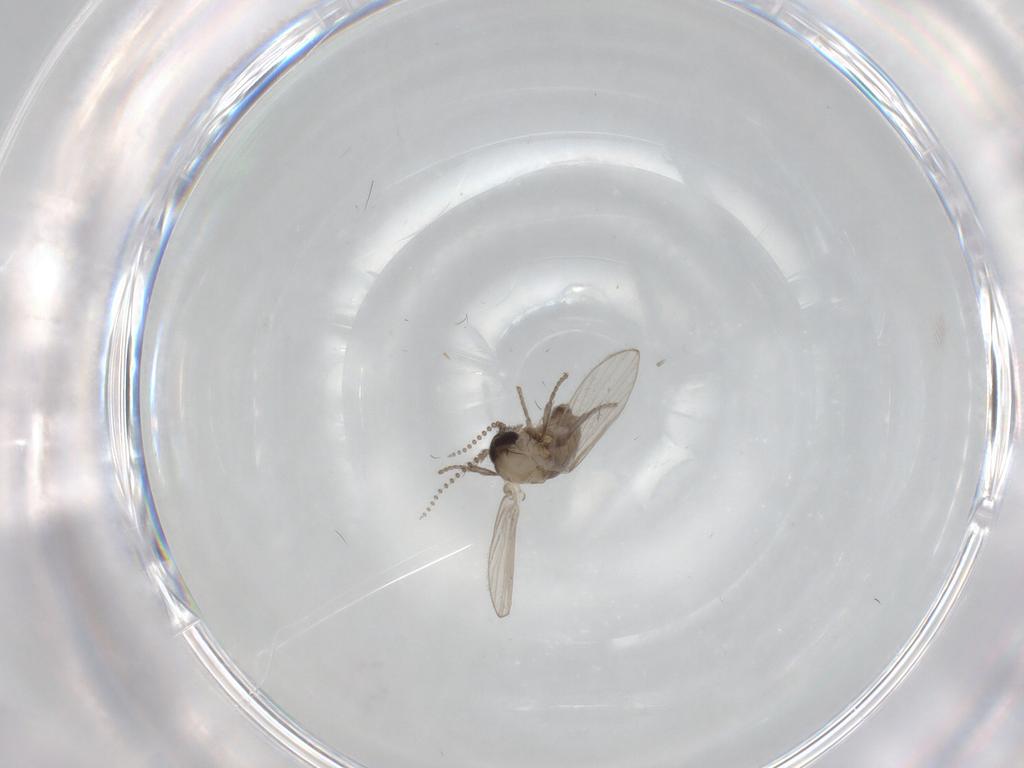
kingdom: Animalia
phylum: Arthropoda
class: Insecta
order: Diptera
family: Psychodidae
